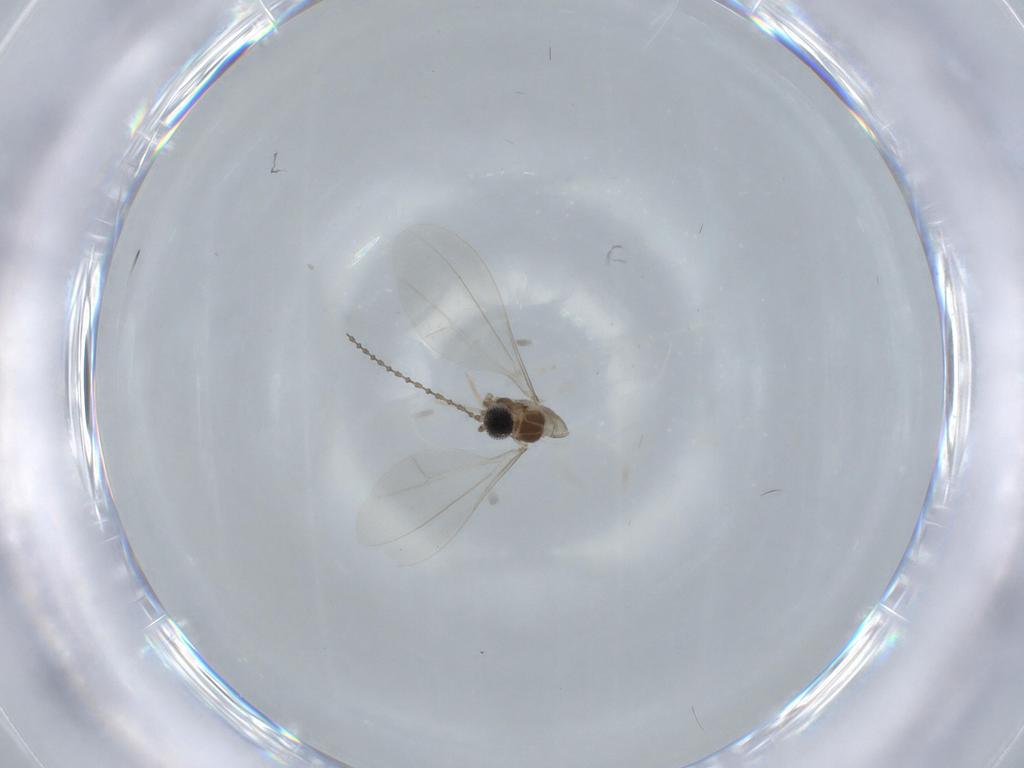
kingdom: Animalia
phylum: Arthropoda
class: Insecta
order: Diptera
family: Cecidomyiidae
